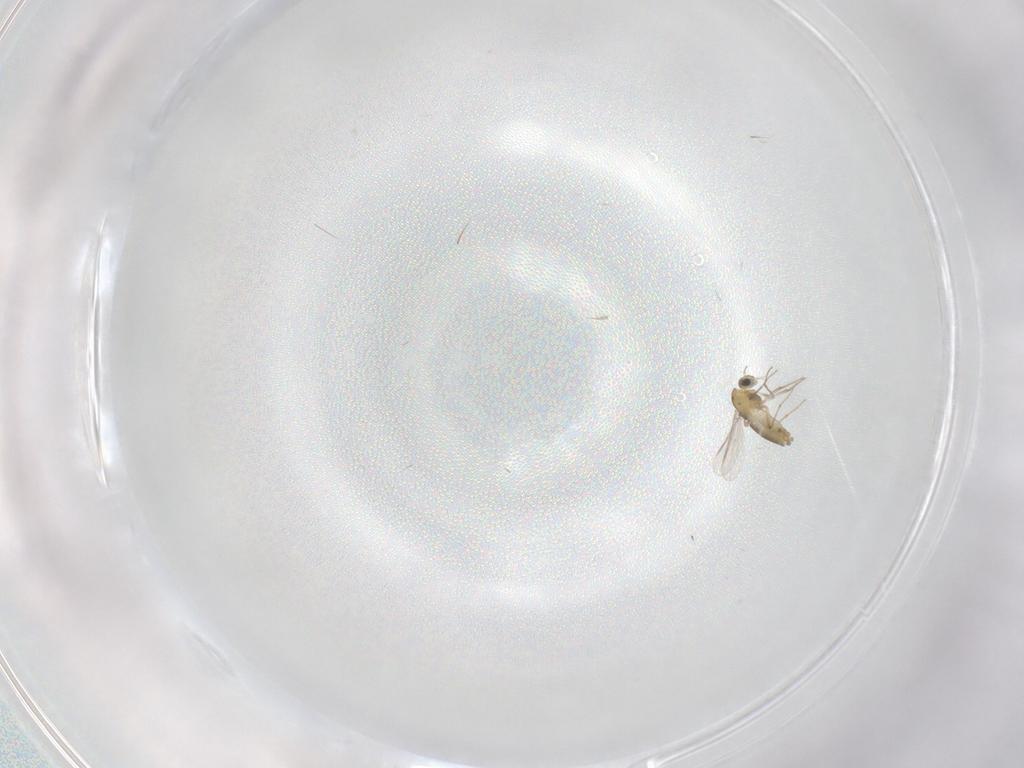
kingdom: Animalia
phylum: Arthropoda
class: Insecta
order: Diptera
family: Chironomidae
